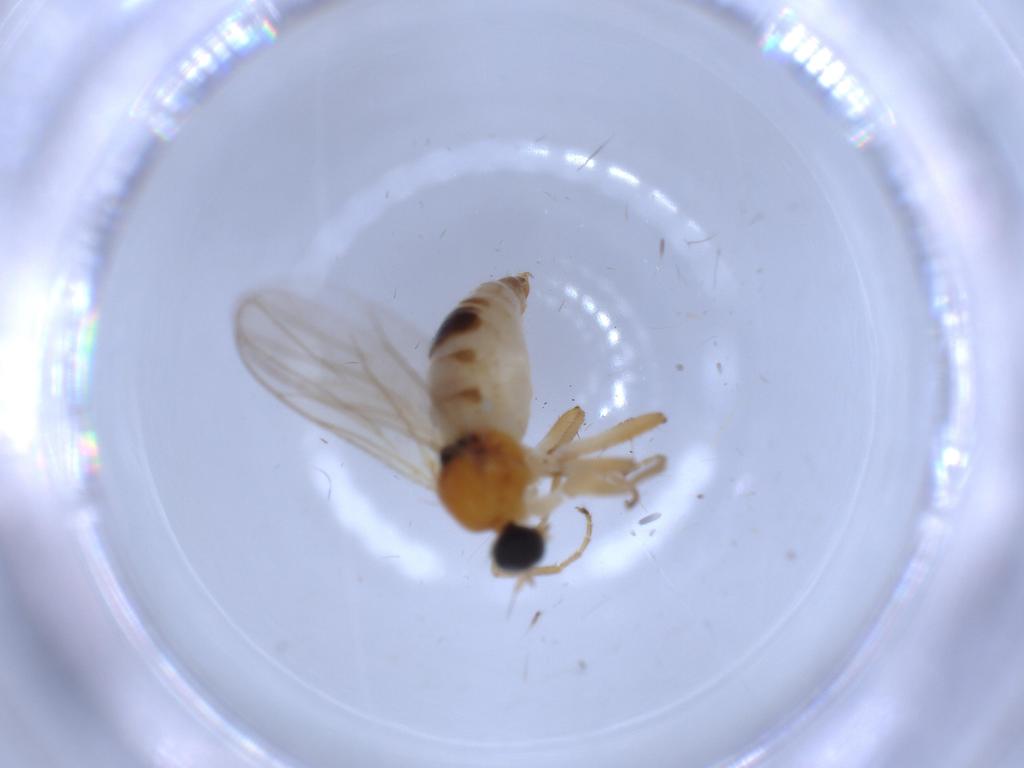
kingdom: Animalia
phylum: Arthropoda
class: Insecta
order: Diptera
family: Hybotidae
